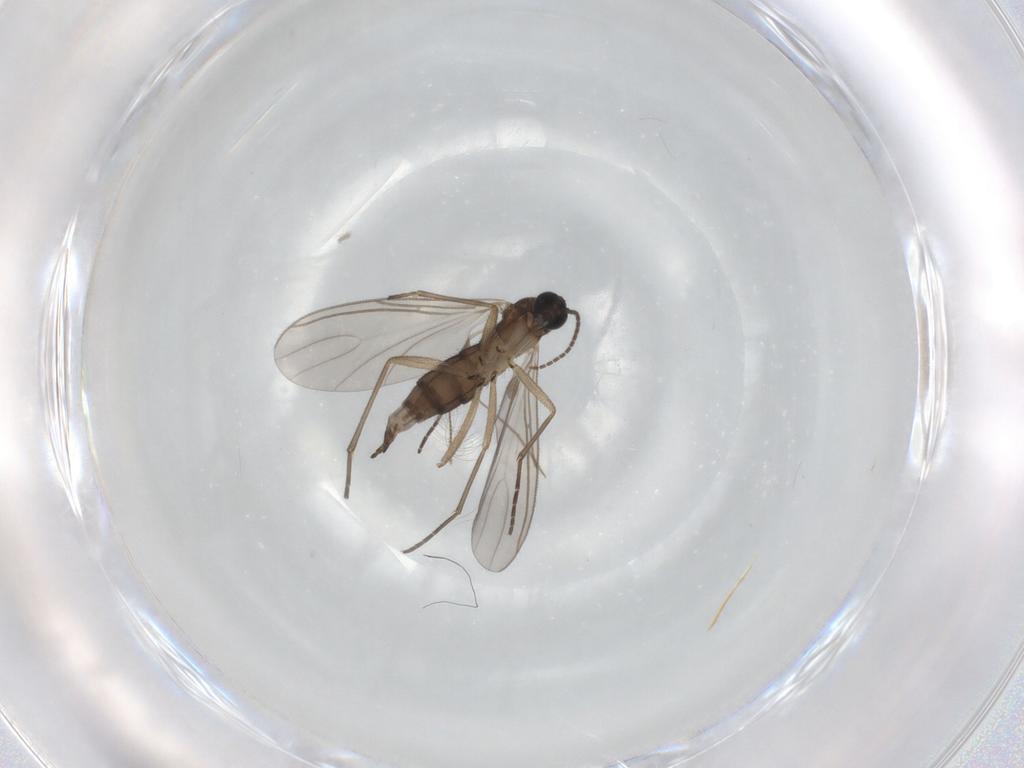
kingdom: Animalia
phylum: Arthropoda
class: Insecta
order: Diptera
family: Sciaridae
